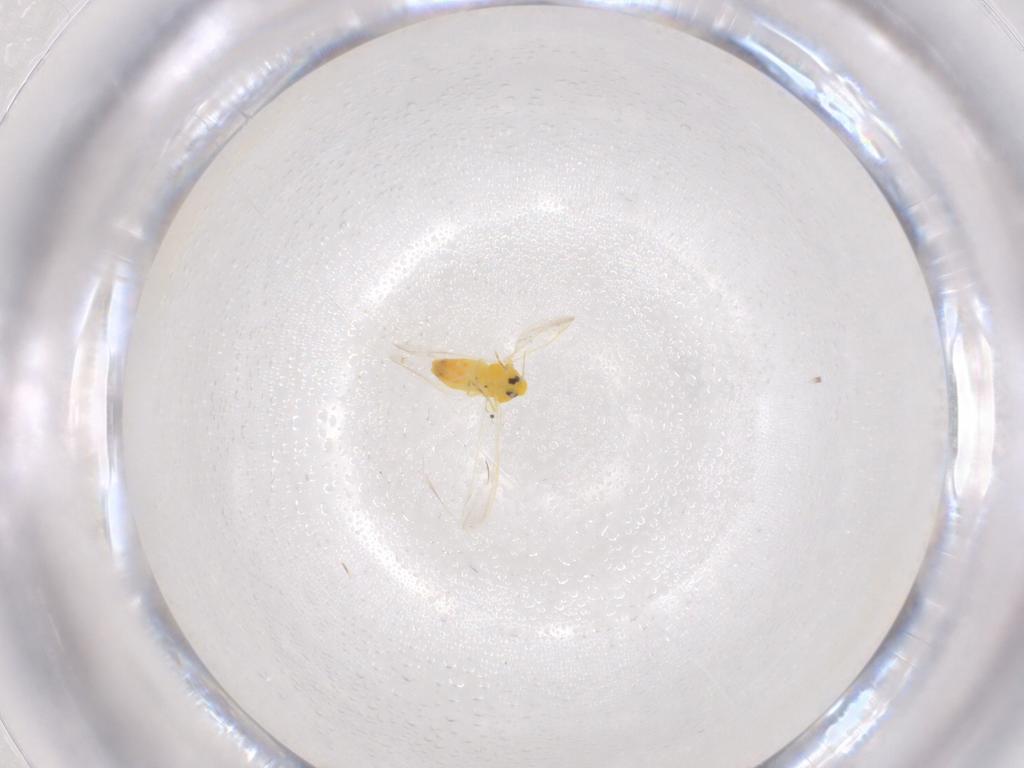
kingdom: Animalia
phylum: Arthropoda
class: Insecta
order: Hemiptera
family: Aleyrodidae
